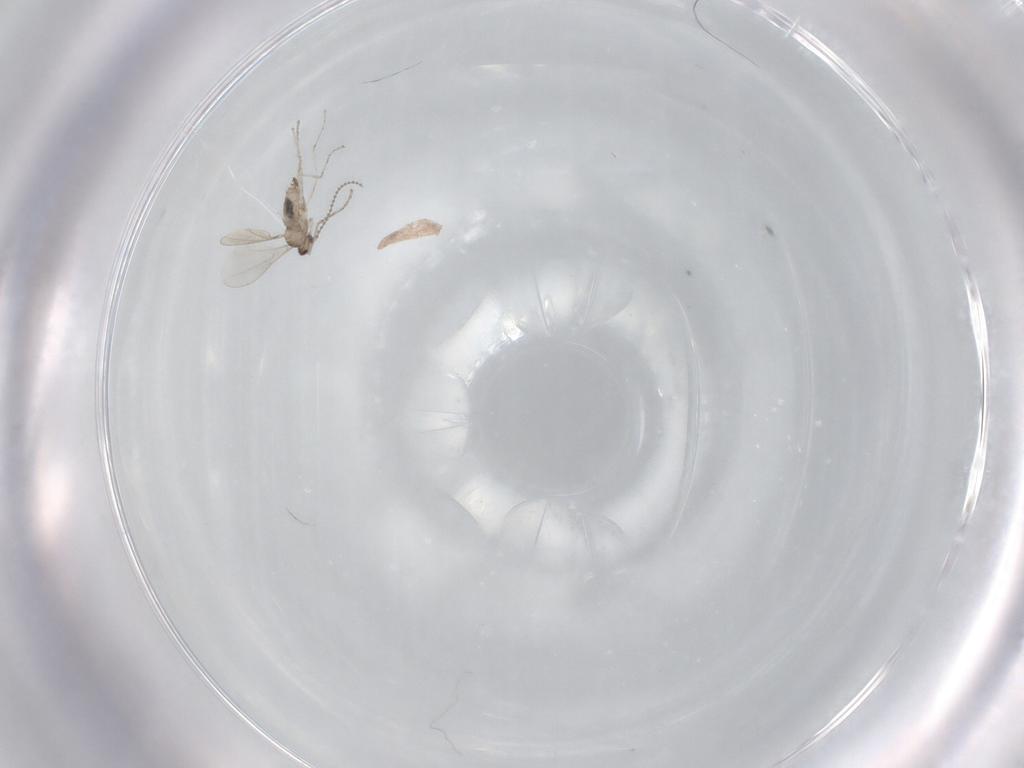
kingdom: Animalia
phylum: Arthropoda
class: Insecta
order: Diptera
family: Cecidomyiidae
